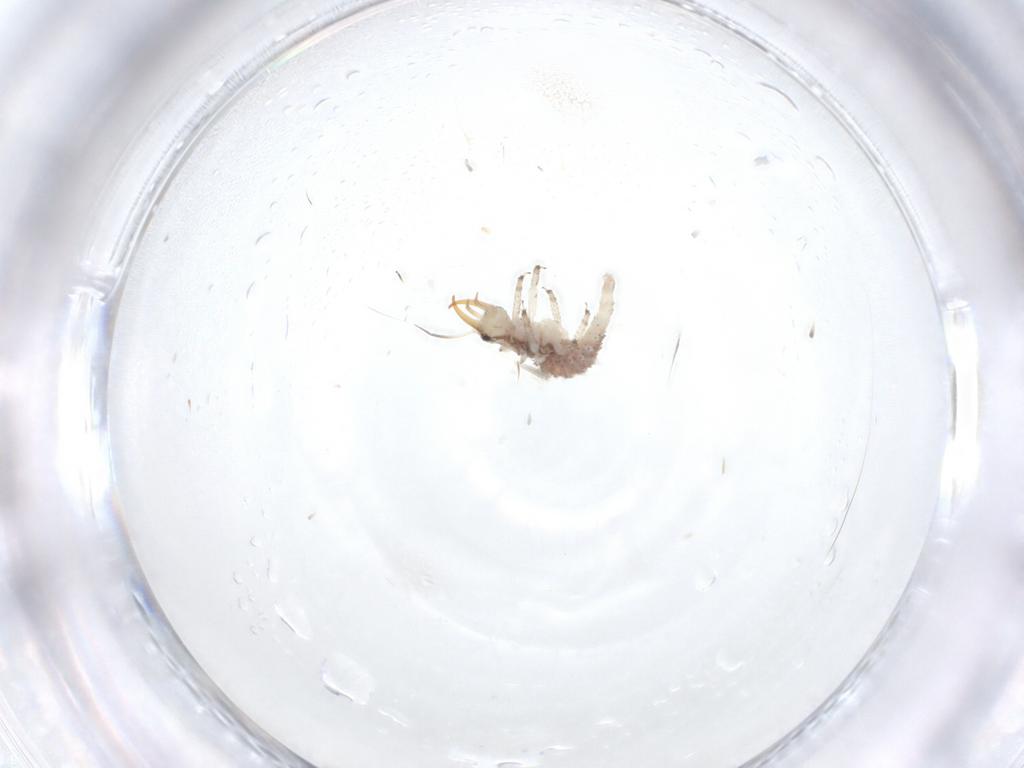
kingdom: Animalia
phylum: Arthropoda
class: Insecta
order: Neuroptera
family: Chrysopidae
